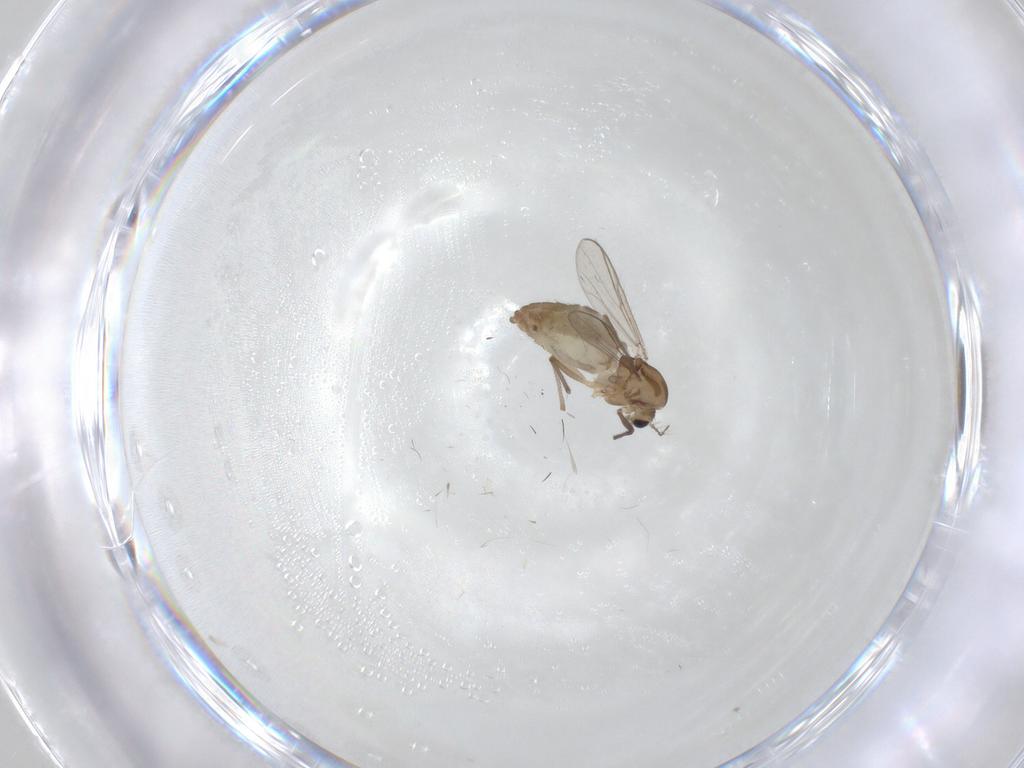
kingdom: Animalia
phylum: Arthropoda
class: Insecta
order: Diptera
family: Chironomidae
